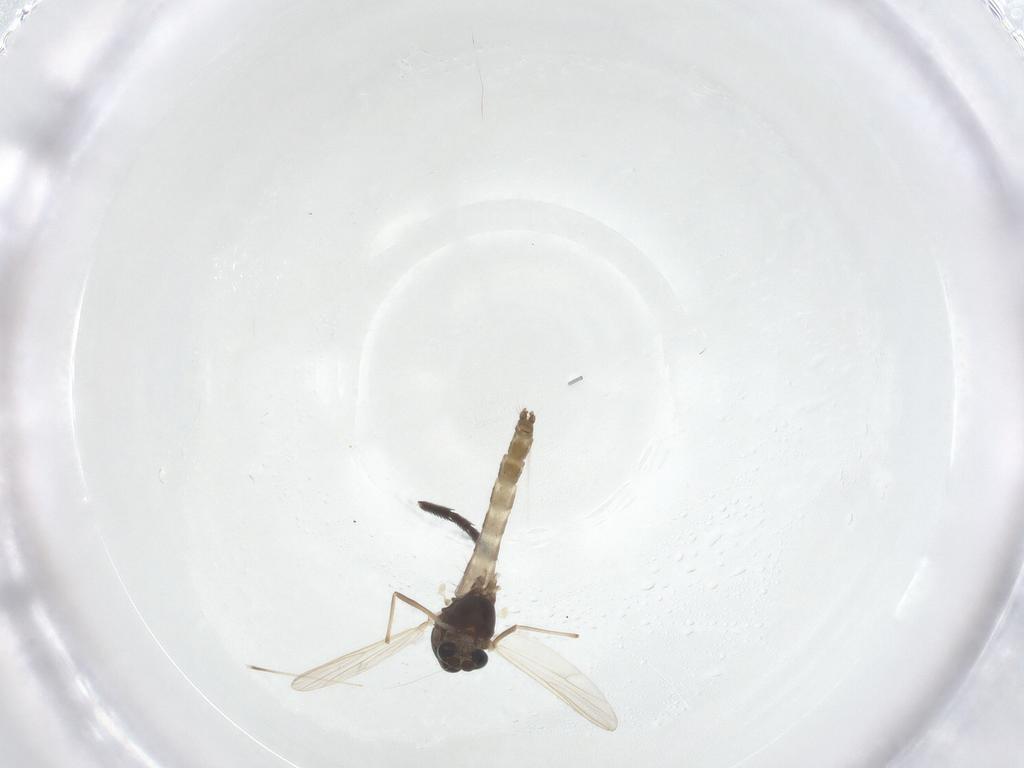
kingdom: Animalia
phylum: Arthropoda
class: Insecta
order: Diptera
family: Chironomidae
